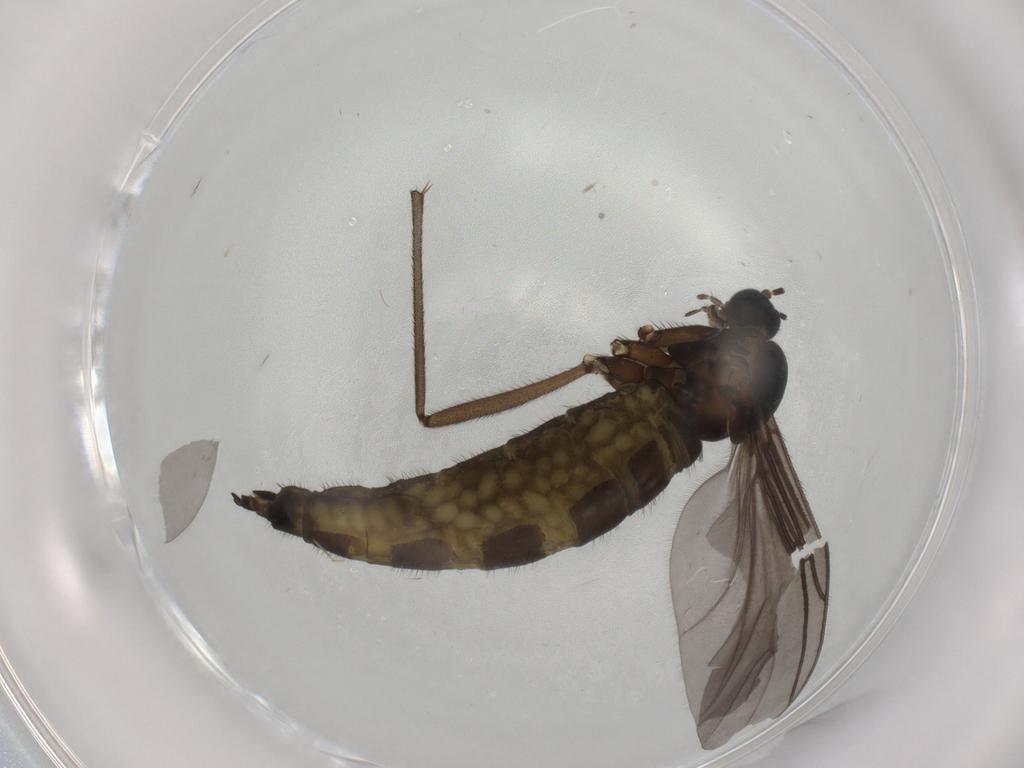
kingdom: Animalia
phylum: Arthropoda
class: Insecta
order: Diptera
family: Sciaridae
